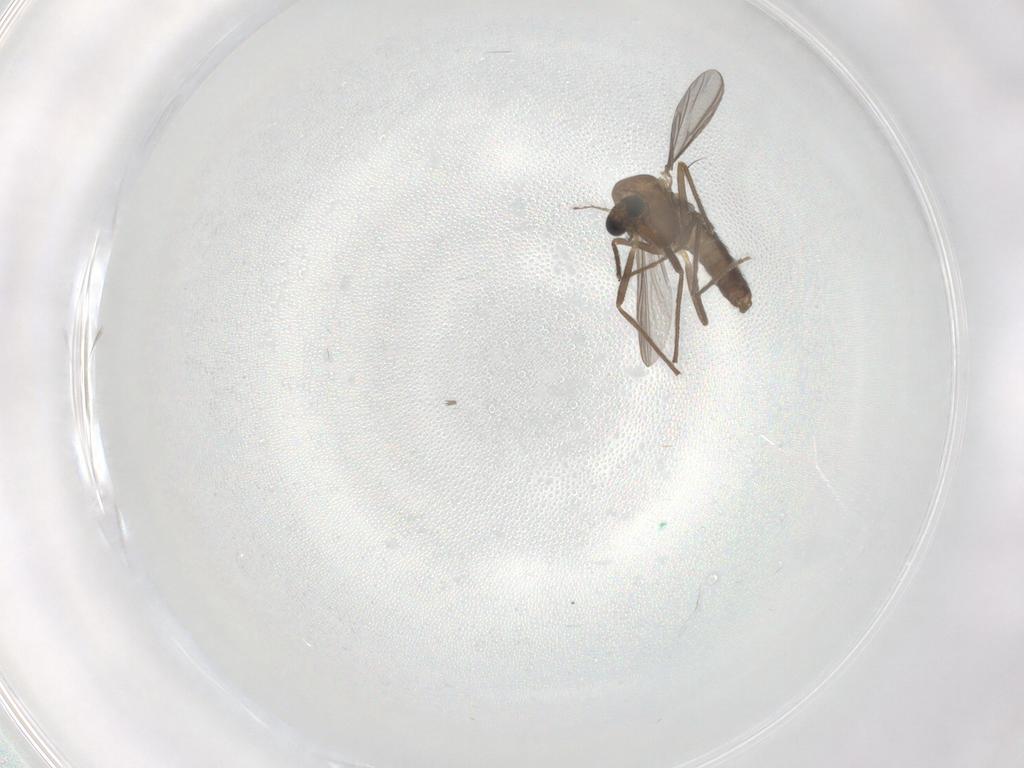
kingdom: Animalia
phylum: Arthropoda
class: Insecta
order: Diptera
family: Chironomidae
